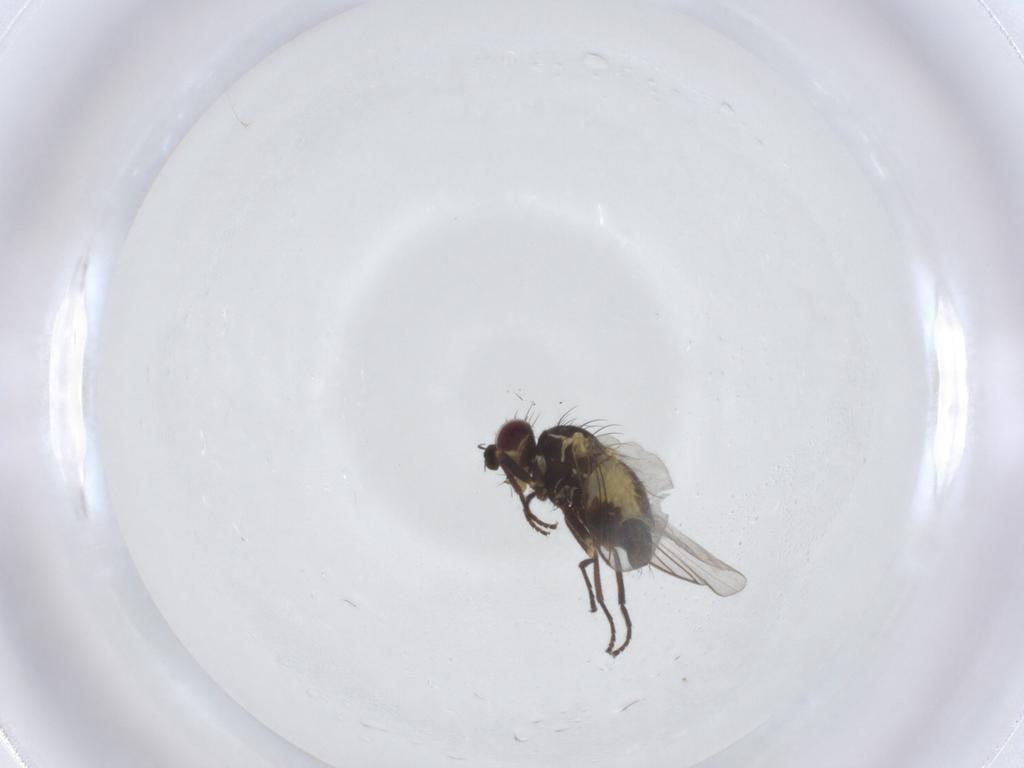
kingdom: Animalia
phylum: Arthropoda
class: Insecta
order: Diptera
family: Agromyzidae
